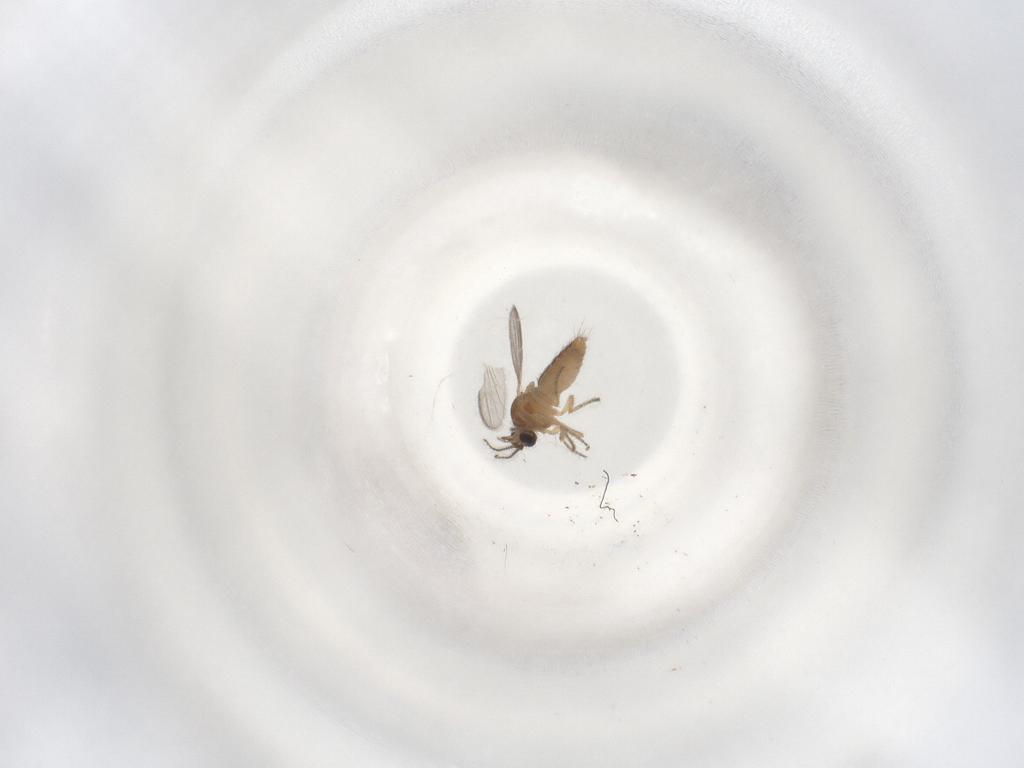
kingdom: Animalia
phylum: Arthropoda
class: Insecta
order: Diptera
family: Ceratopogonidae
